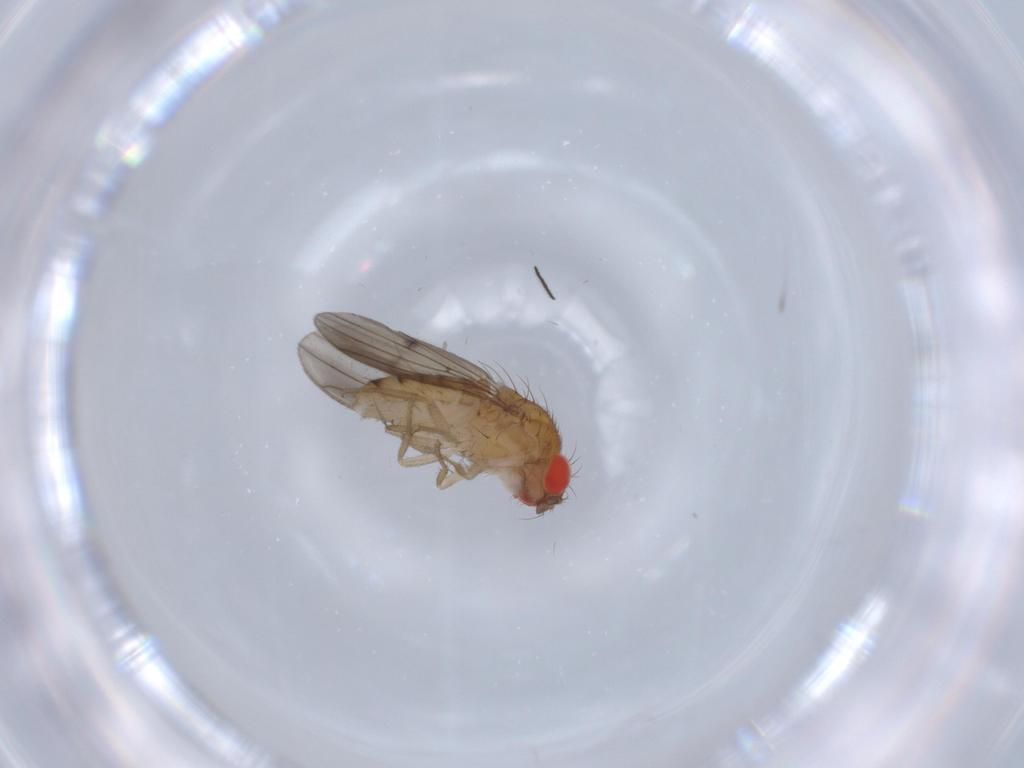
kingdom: Animalia
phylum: Arthropoda
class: Insecta
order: Diptera
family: Drosophilidae
